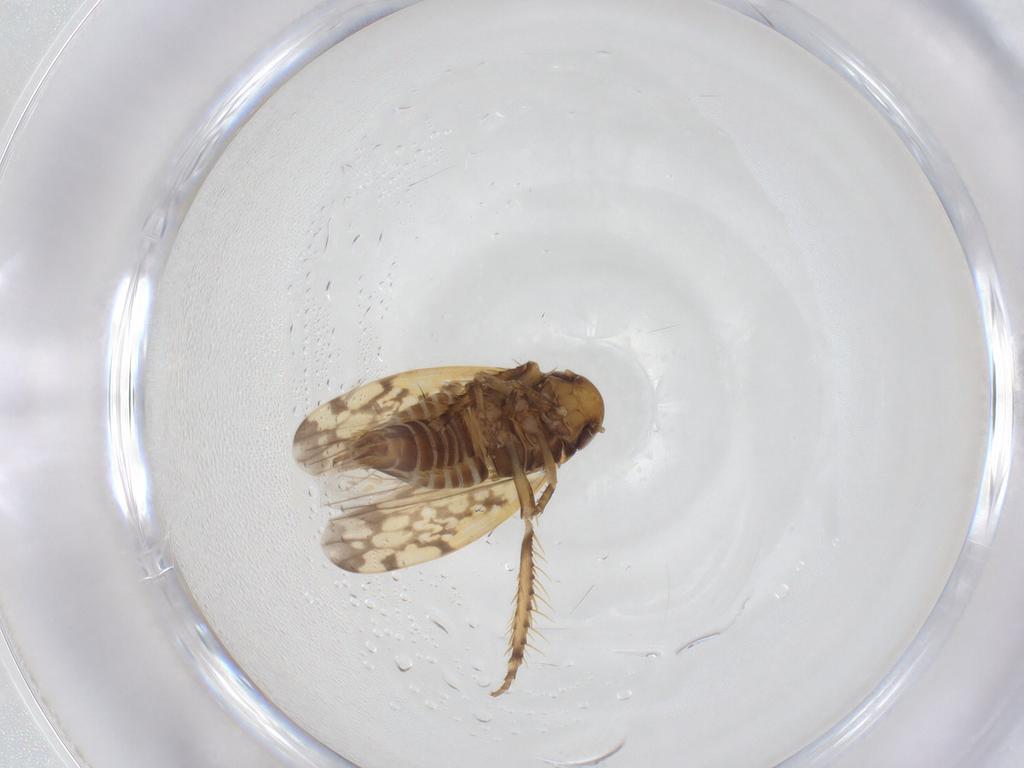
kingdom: Animalia
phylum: Arthropoda
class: Insecta
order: Hemiptera
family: Cicadellidae
